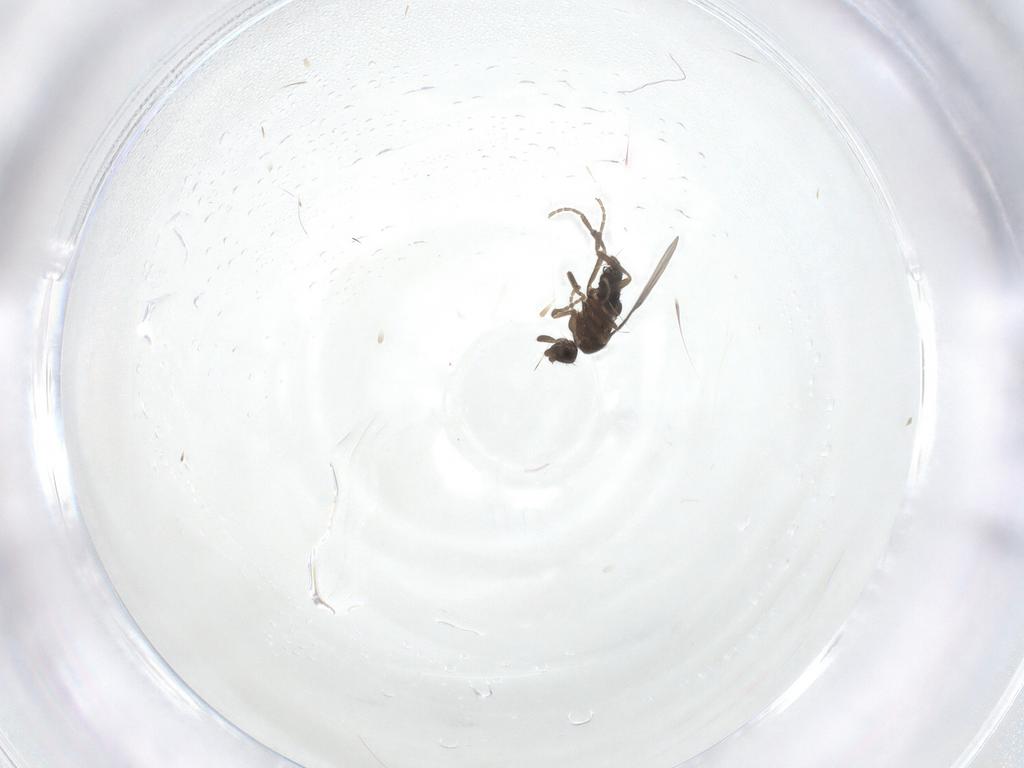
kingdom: Animalia
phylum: Arthropoda
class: Insecta
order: Diptera
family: Chironomidae
